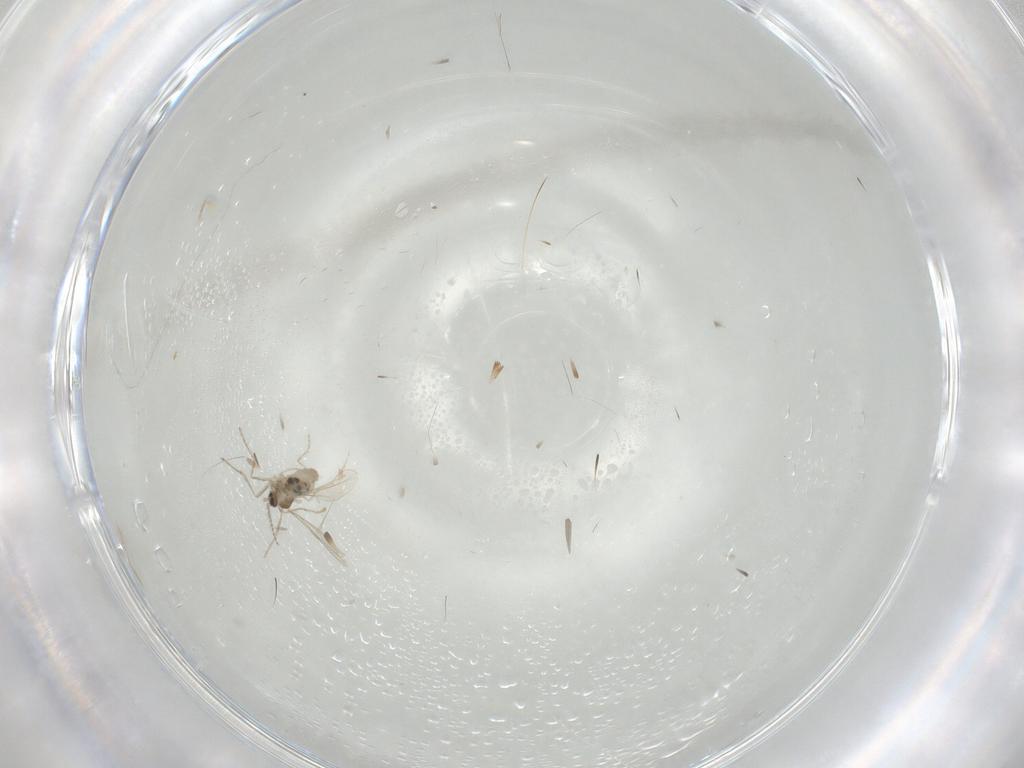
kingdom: Animalia
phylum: Arthropoda
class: Insecta
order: Diptera
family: Cecidomyiidae
